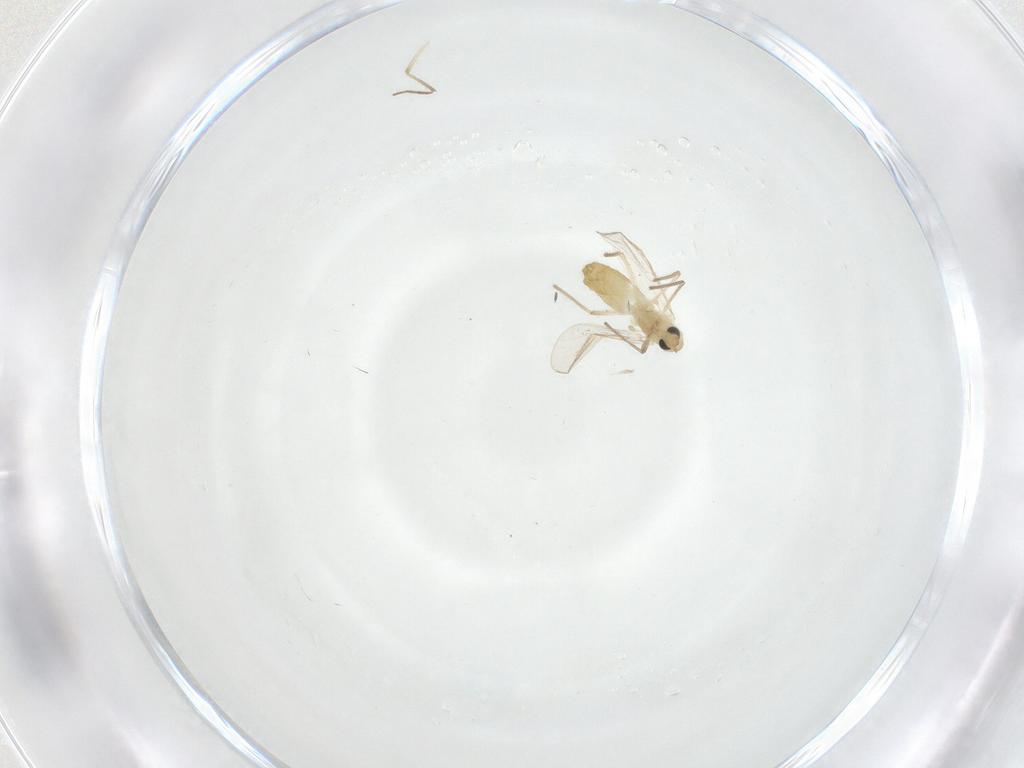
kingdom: Animalia
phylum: Arthropoda
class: Insecta
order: Diptera
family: Chironomidae
